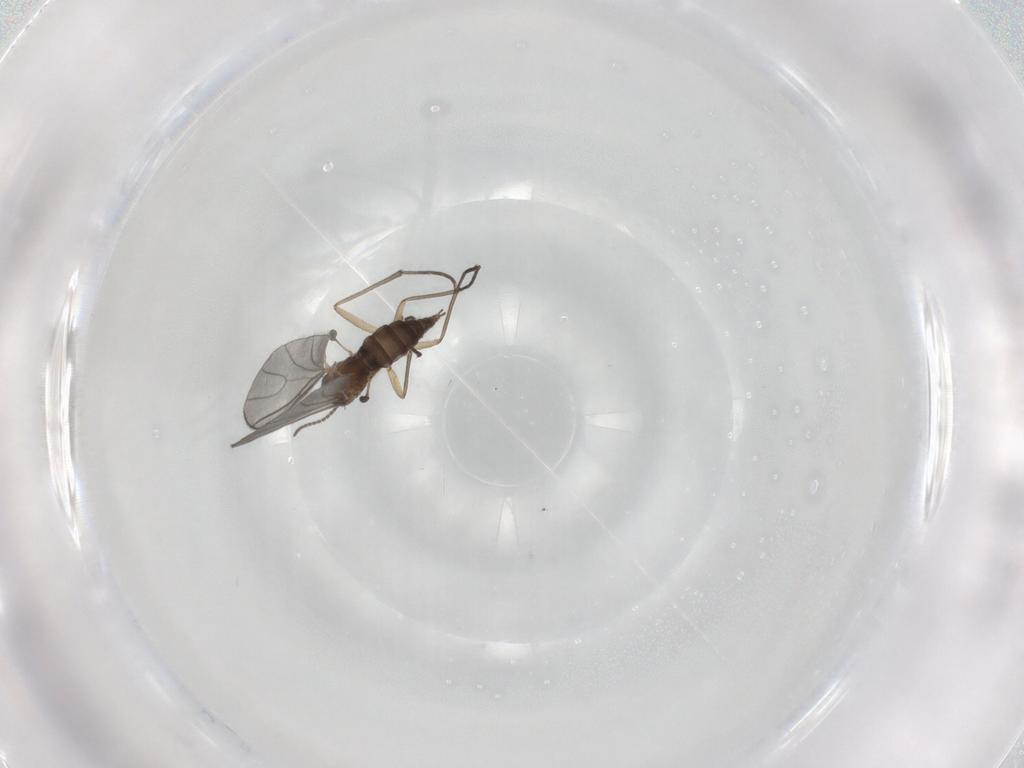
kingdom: Animalia
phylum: Arthropoda
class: Insecta
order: Diptera
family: Sciaridae
